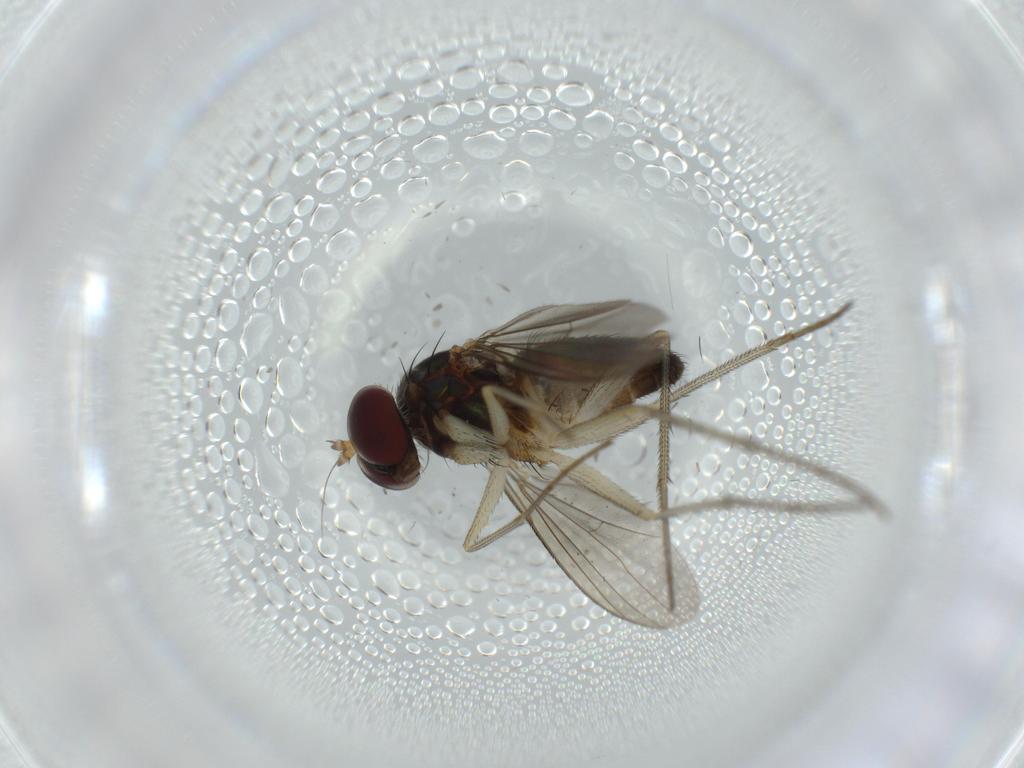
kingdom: Animalia
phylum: Arthropoda
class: Insecta
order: Diptera
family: Dolichopodidae
